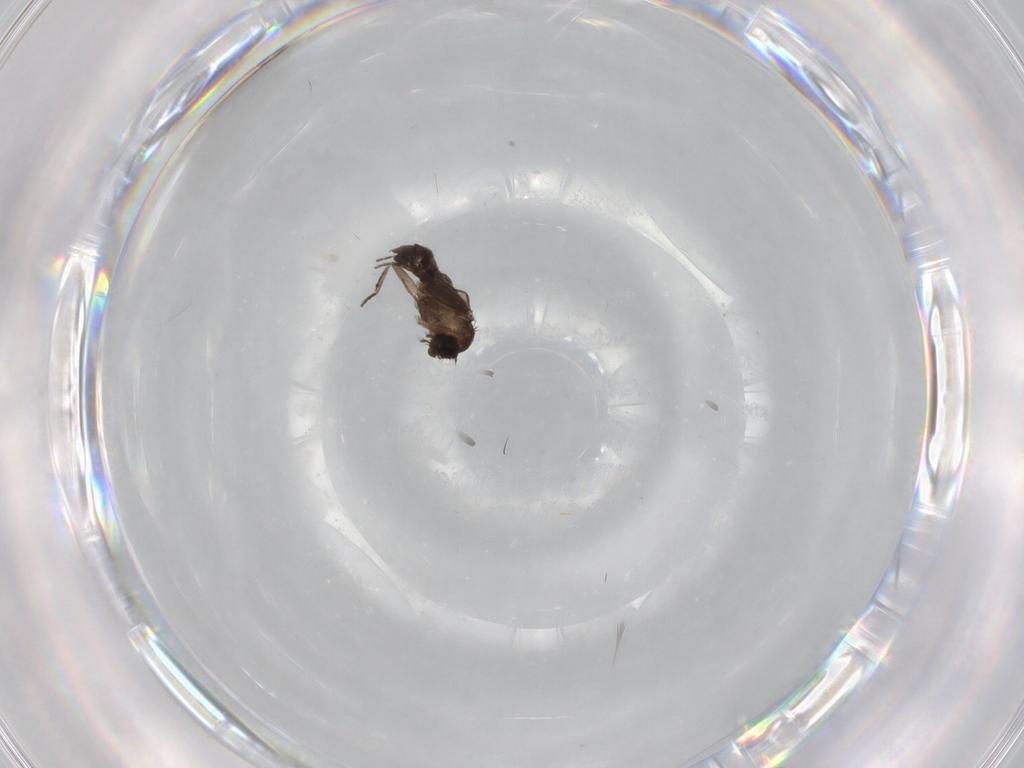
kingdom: Animalia
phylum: Arthropoda
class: Insecta
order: Diptera
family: Phoridae
